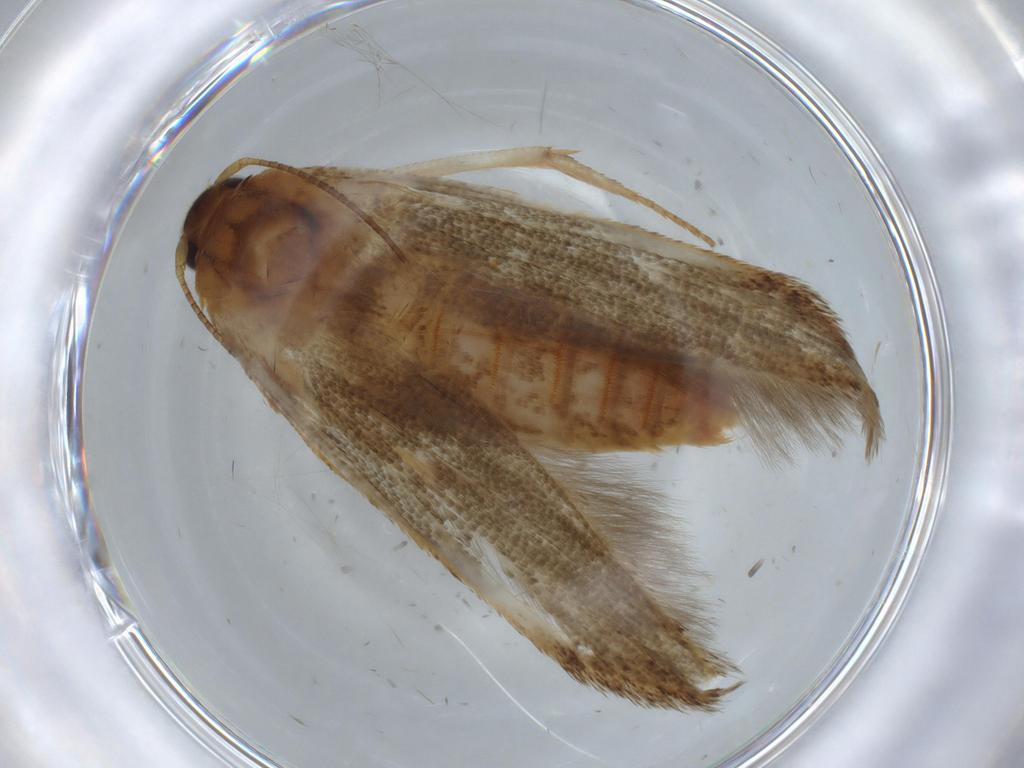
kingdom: Animalia
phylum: Arthropoda
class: Insecta
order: Lepidoptera
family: Blastobasidae
